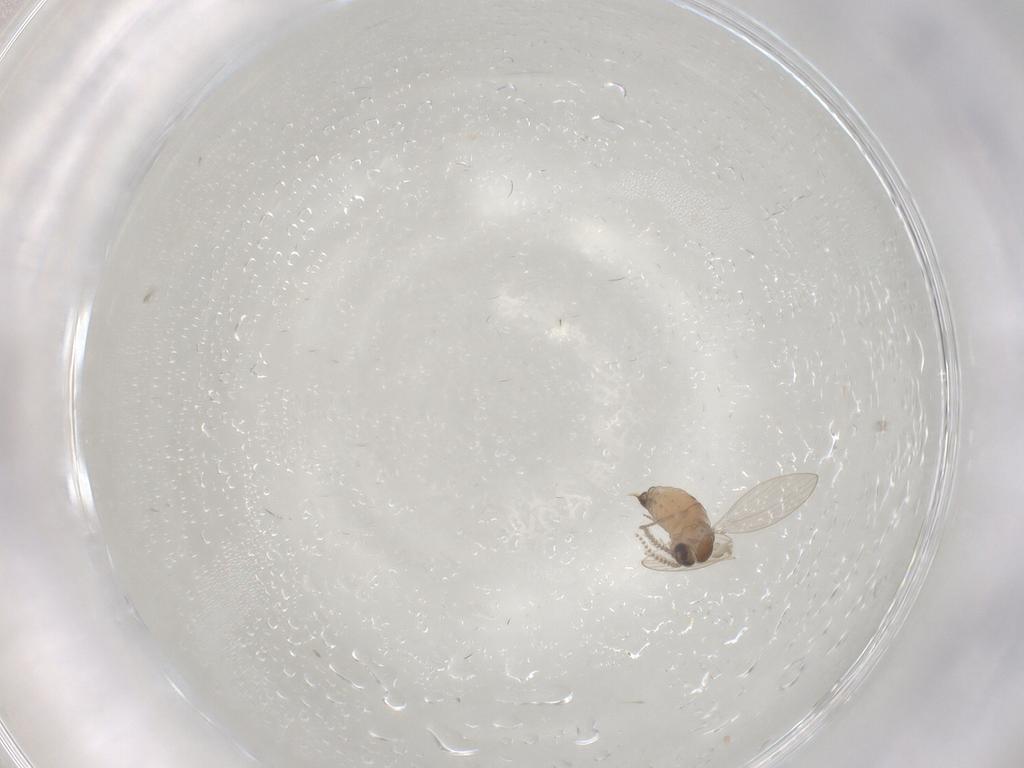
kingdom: Animalia
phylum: Arthropoda
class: Insecta
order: Diptera
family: Psychodidae
